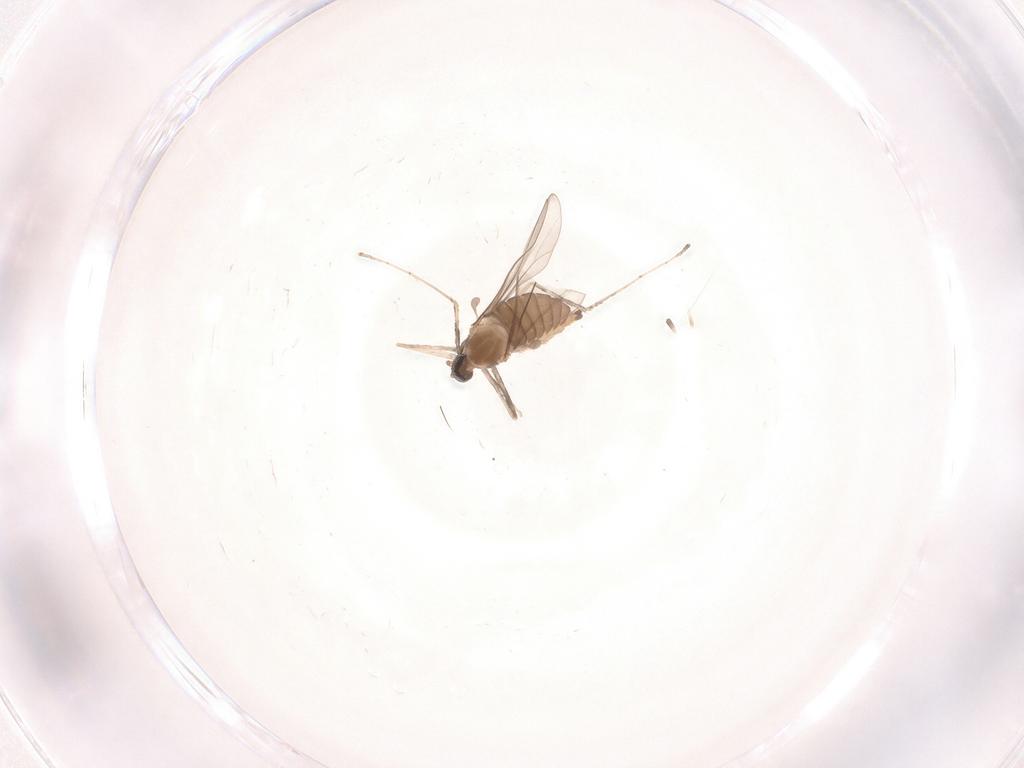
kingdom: Animalia
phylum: Arthropoda
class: Insecta
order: Diptera
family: Cecidomyiidae
